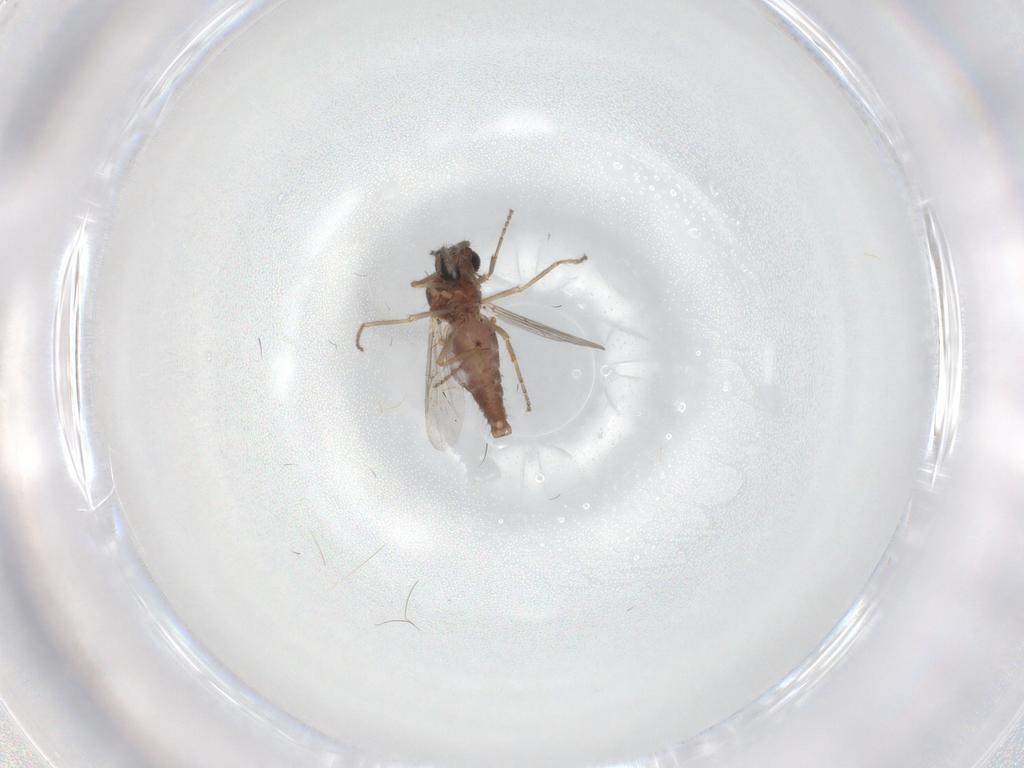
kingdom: Animalia
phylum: Arthropoda
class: Insecta
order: Diptera
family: Ceratopogonidae
